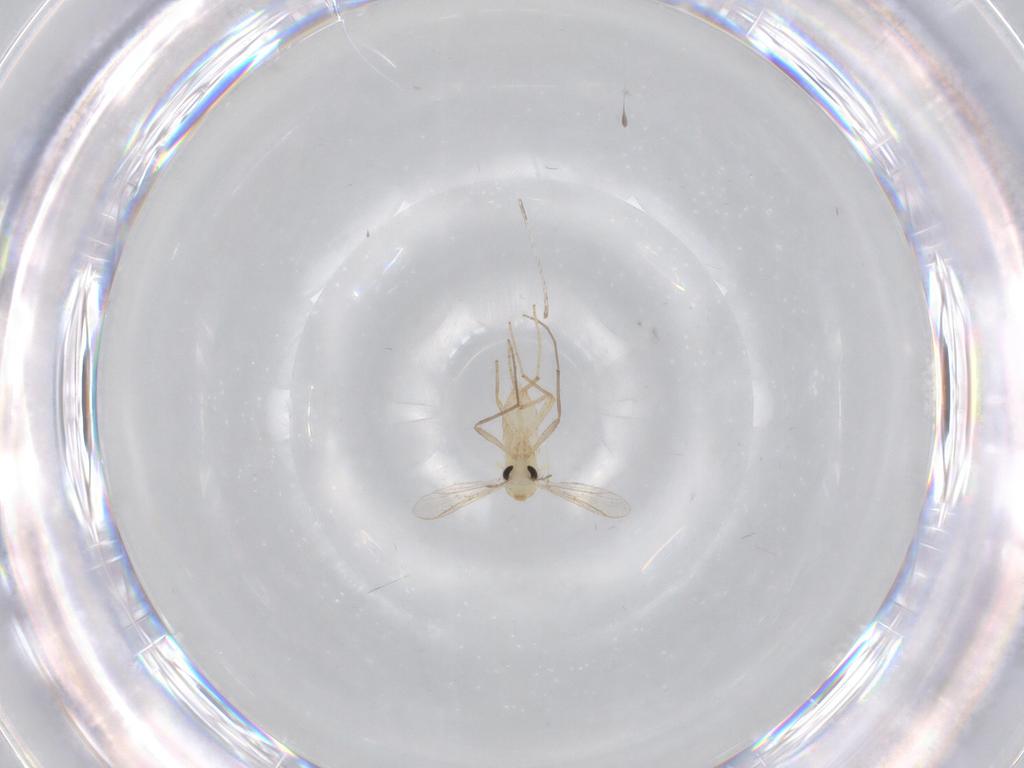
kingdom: Animalia
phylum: Arthropoda
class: Insecta
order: Diptera
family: Chironomidae
